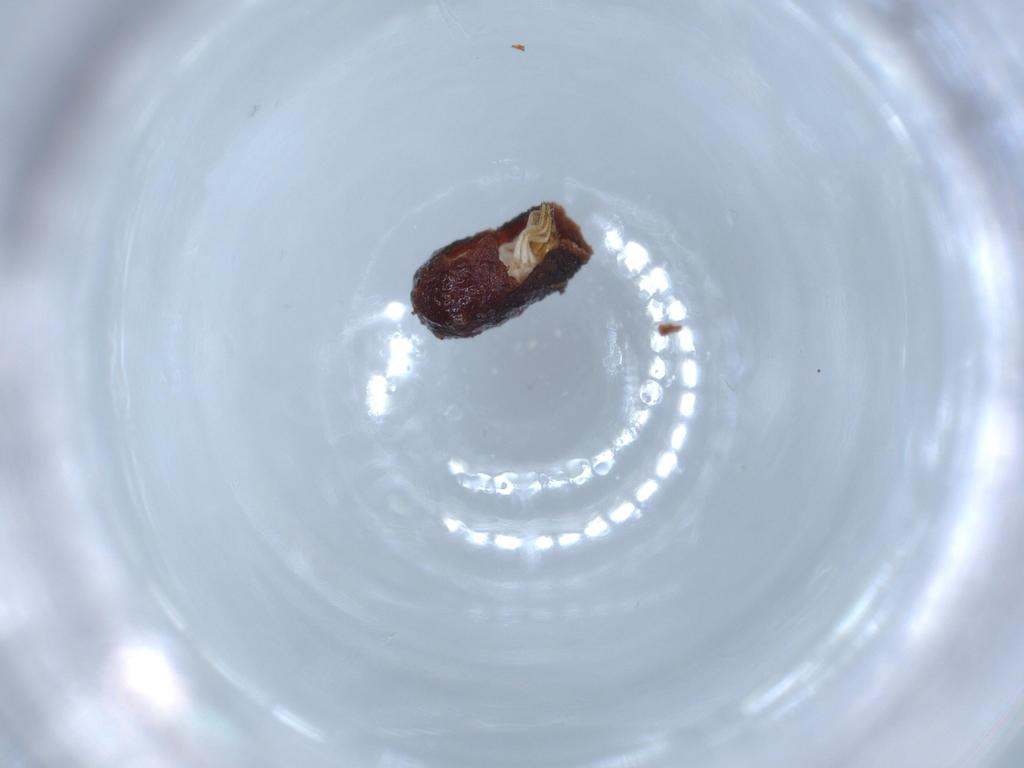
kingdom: Animalia
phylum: Arthropoda
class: Insecta
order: Coleoptera
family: Chrysomelidae
